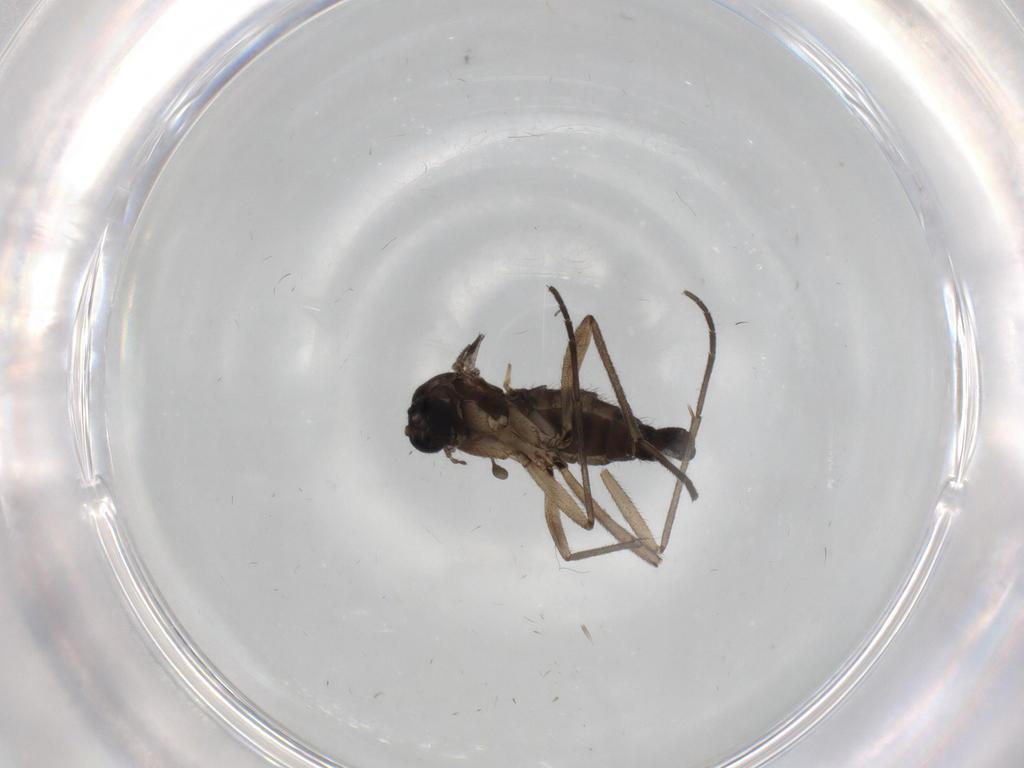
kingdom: Animalia
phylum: Arthropoda
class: Insecta
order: Diptera
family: Sciaridae
